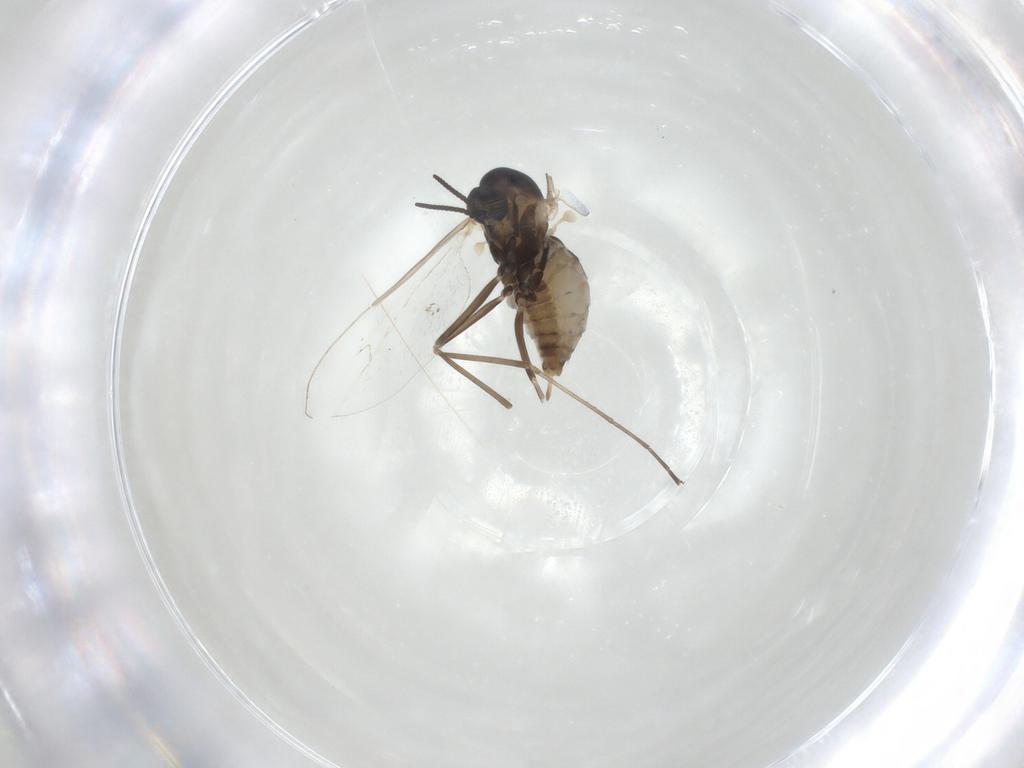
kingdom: Animalia
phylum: Arthropoda
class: Insecta
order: Diptera
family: Cecidomyiidae
